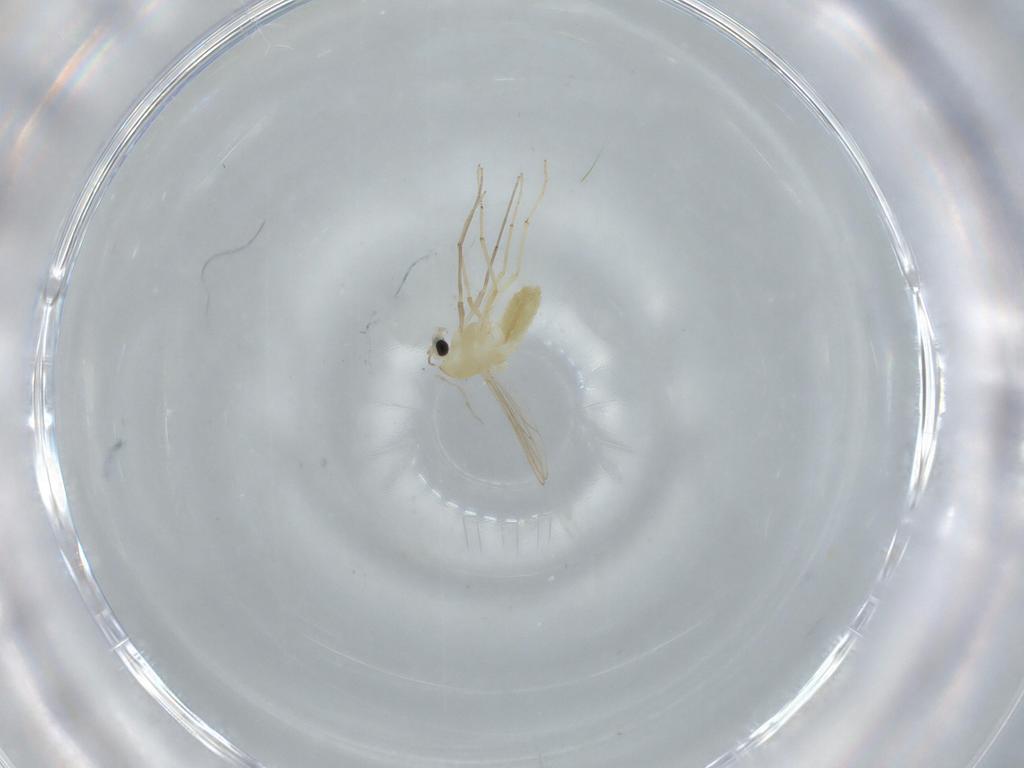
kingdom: Animalia
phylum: Arthropoda
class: Insecta
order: Diptera
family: Chironomidae
